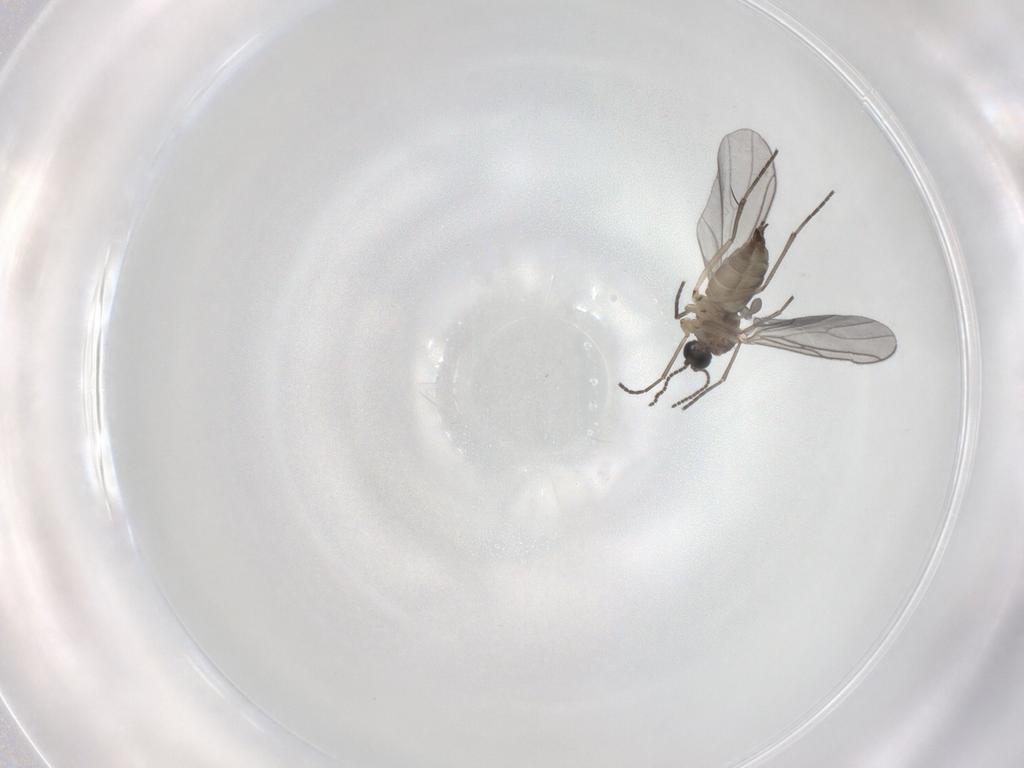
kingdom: Animalia
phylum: Arthropoda
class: Insecta
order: Diptera
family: Sciaridae
